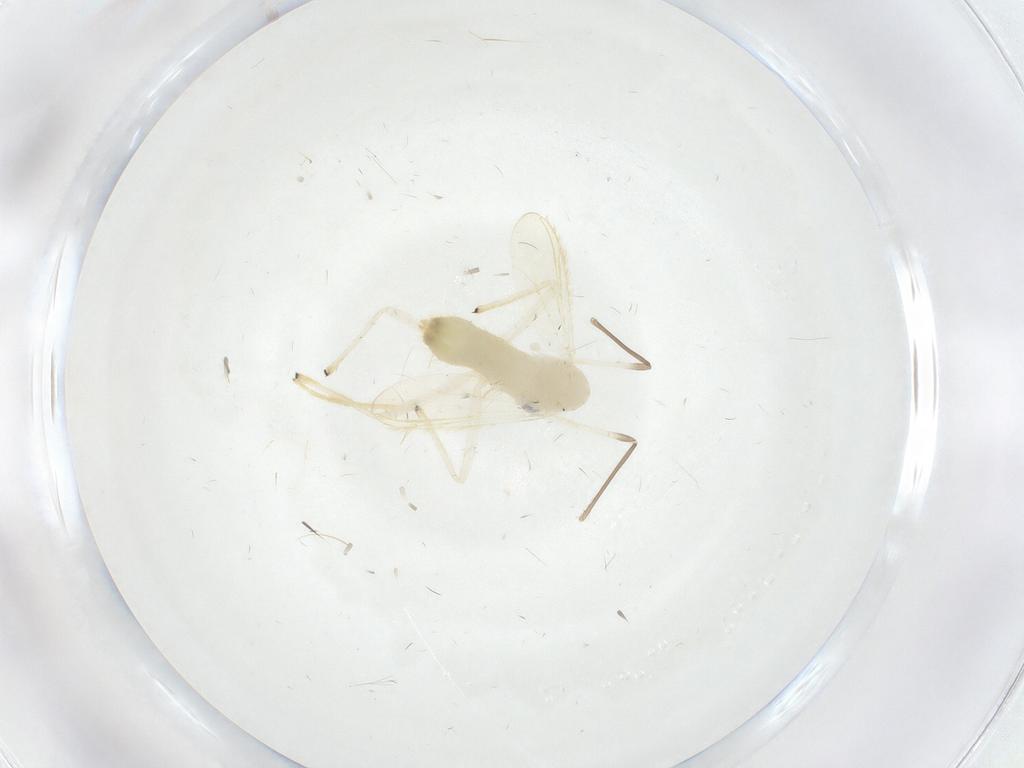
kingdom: Animalia
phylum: Arthropoda
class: Insecta
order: Diptera
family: Chironomidae
